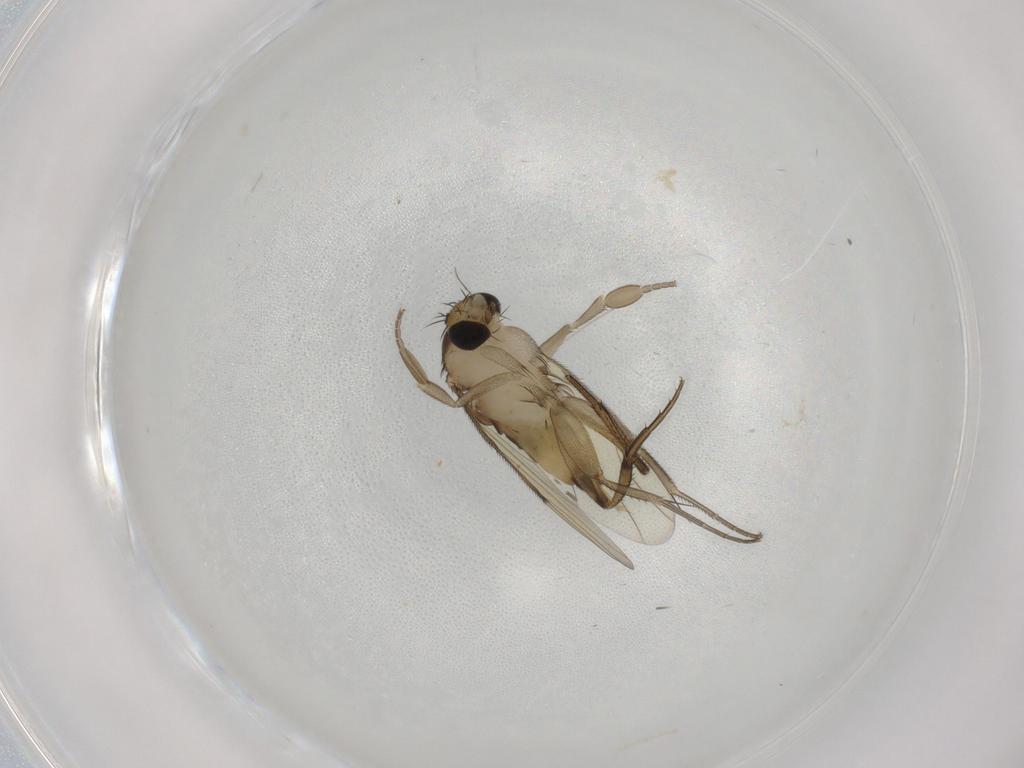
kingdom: Animalia
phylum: Arthropoda
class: Insecta
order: Diptera
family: Phoridae
